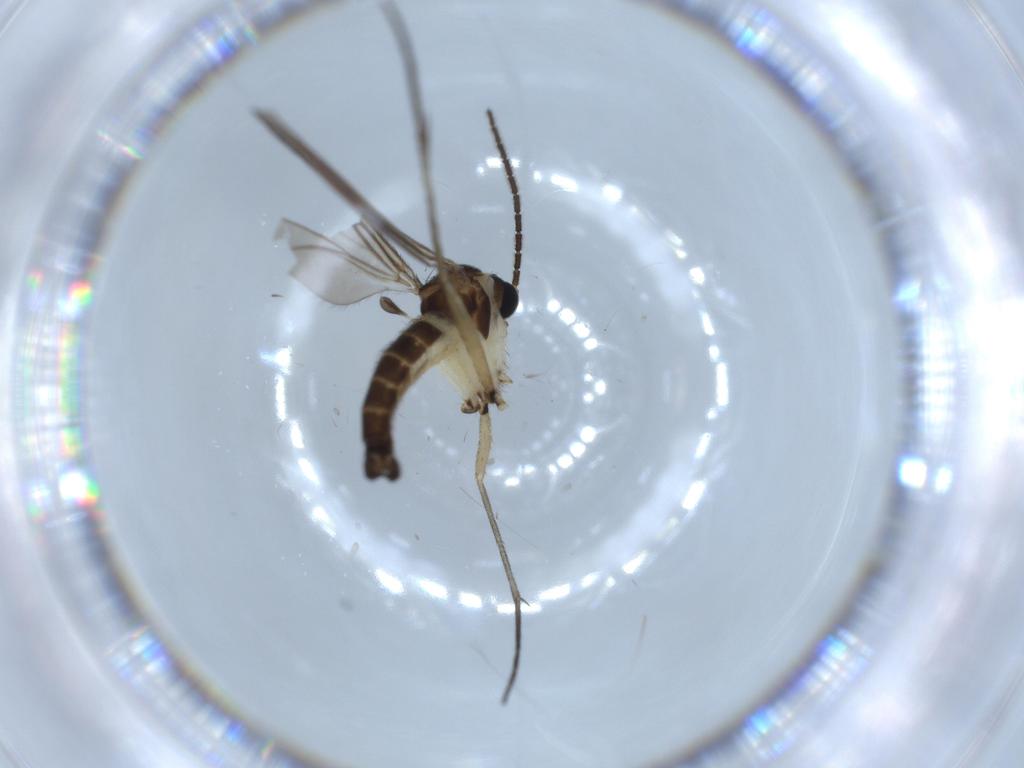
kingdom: Animalia
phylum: Arthropoda
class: Insecta
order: Diptera
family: Sciaridae
